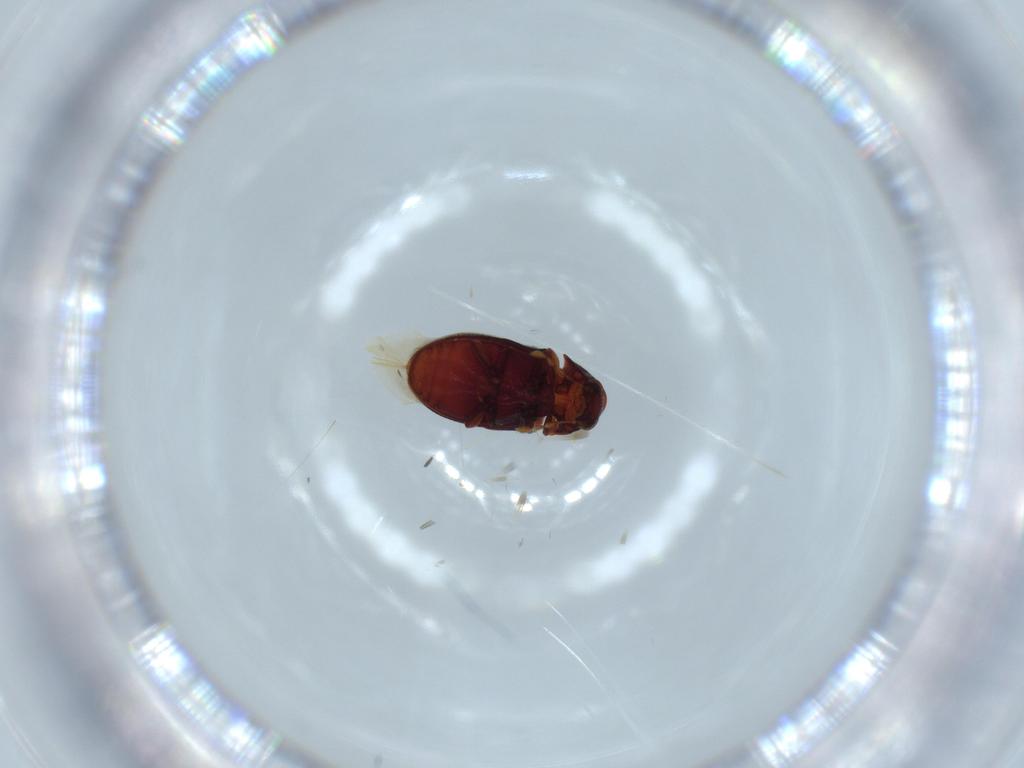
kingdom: Animalia
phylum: Arthropoda
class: Insecta
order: Coleoptera
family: Ptinidae
